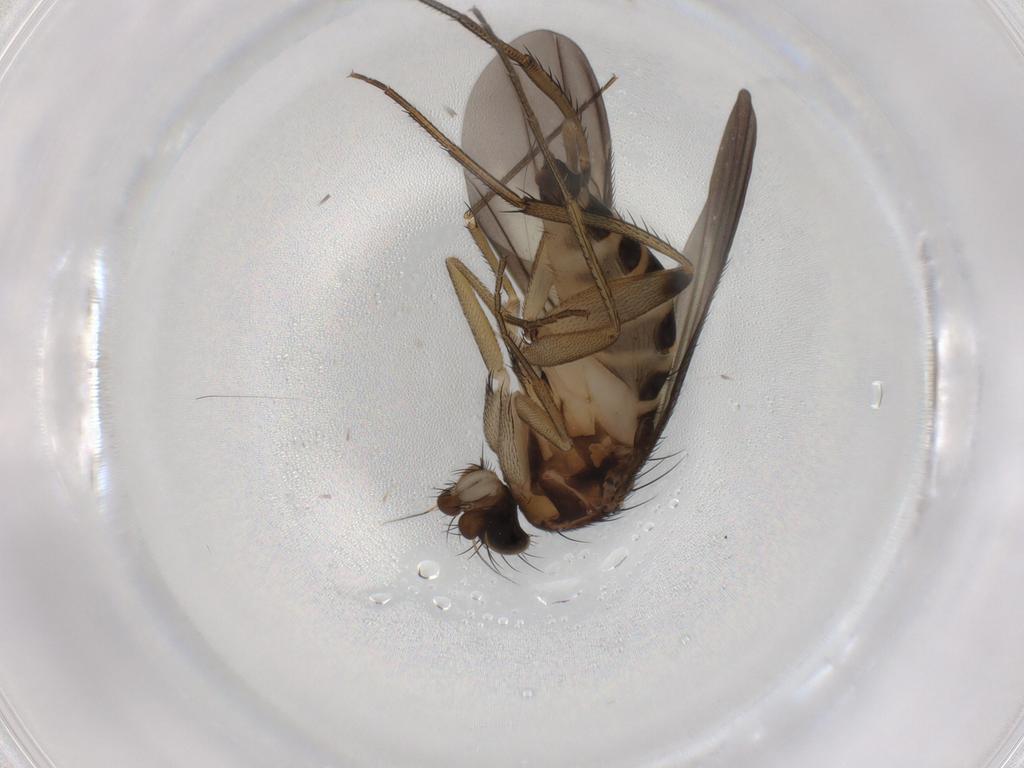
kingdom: Animalia
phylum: Arthropoda
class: Insecta
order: Diptera
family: Phoridae
